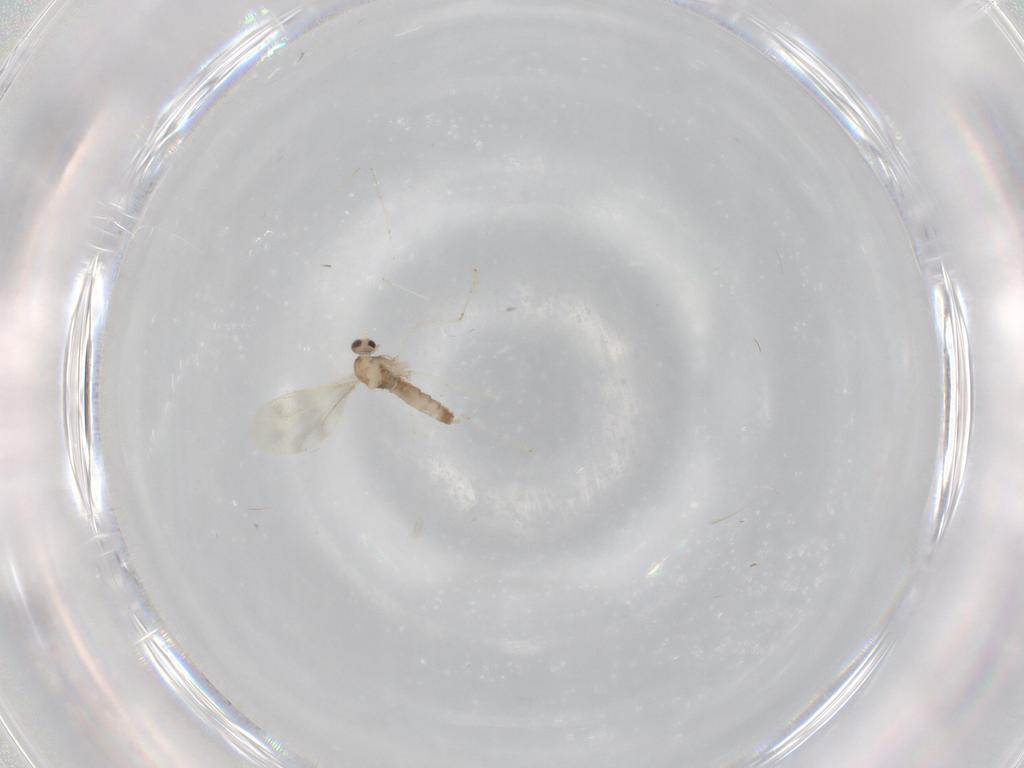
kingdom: Animalia
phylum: Arthropoda
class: Insecta
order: Diptera
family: Cecidomyiidae
